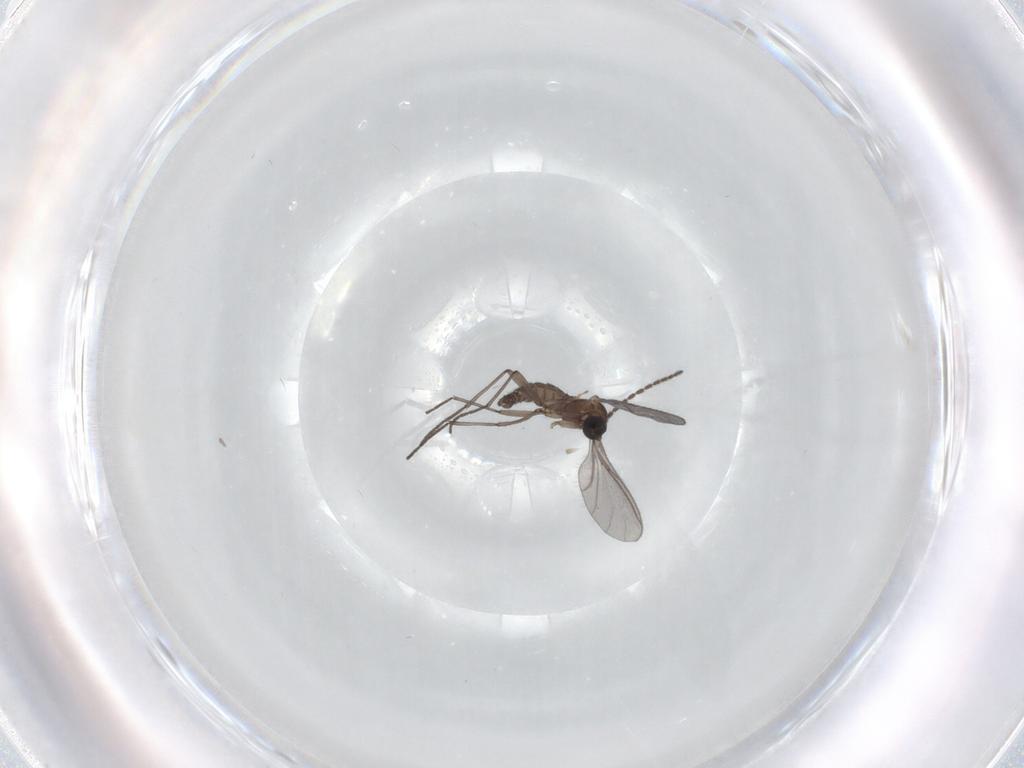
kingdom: Animalia
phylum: Arthropoda
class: Insecta
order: Diptera
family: Sciaridae
